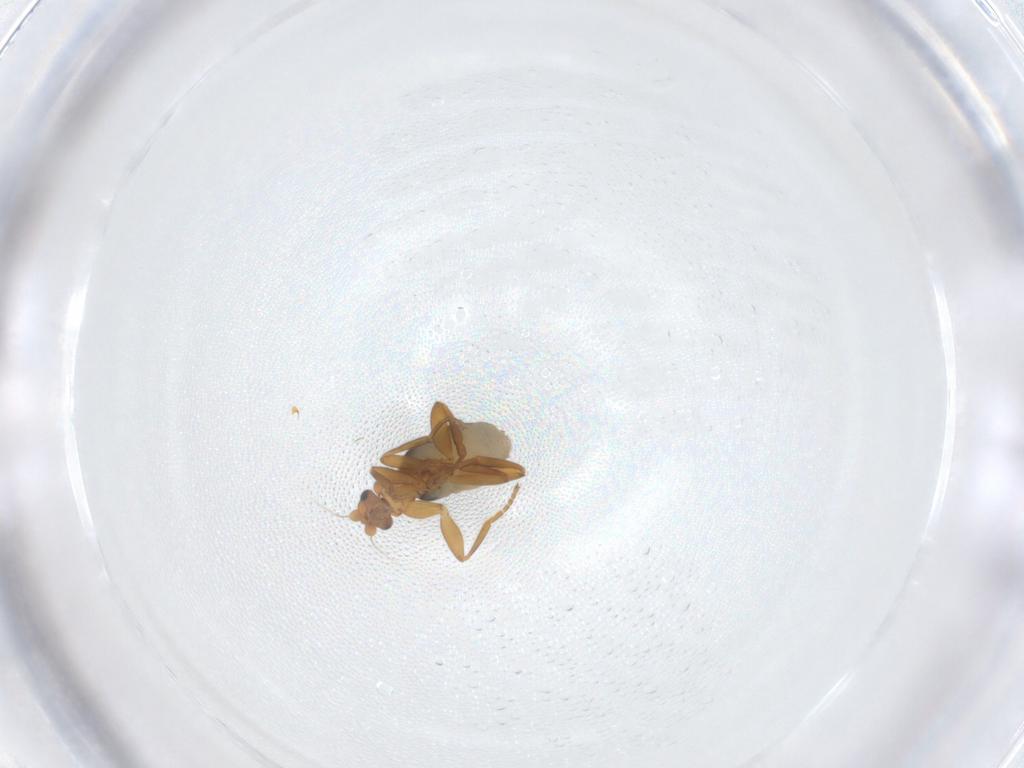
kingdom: Animalia
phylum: Arthropoda
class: Insecta
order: Diptera
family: Phoridae
